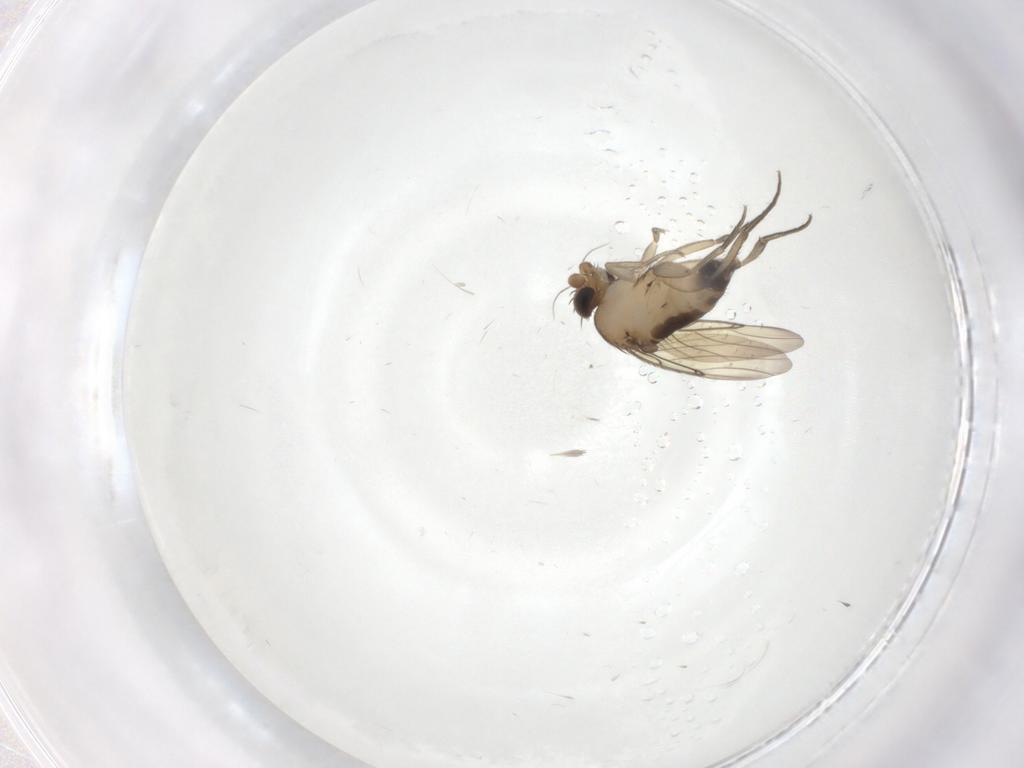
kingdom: Animalia
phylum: Arthropoda
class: Insecta
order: Diptera
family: Phoridae
